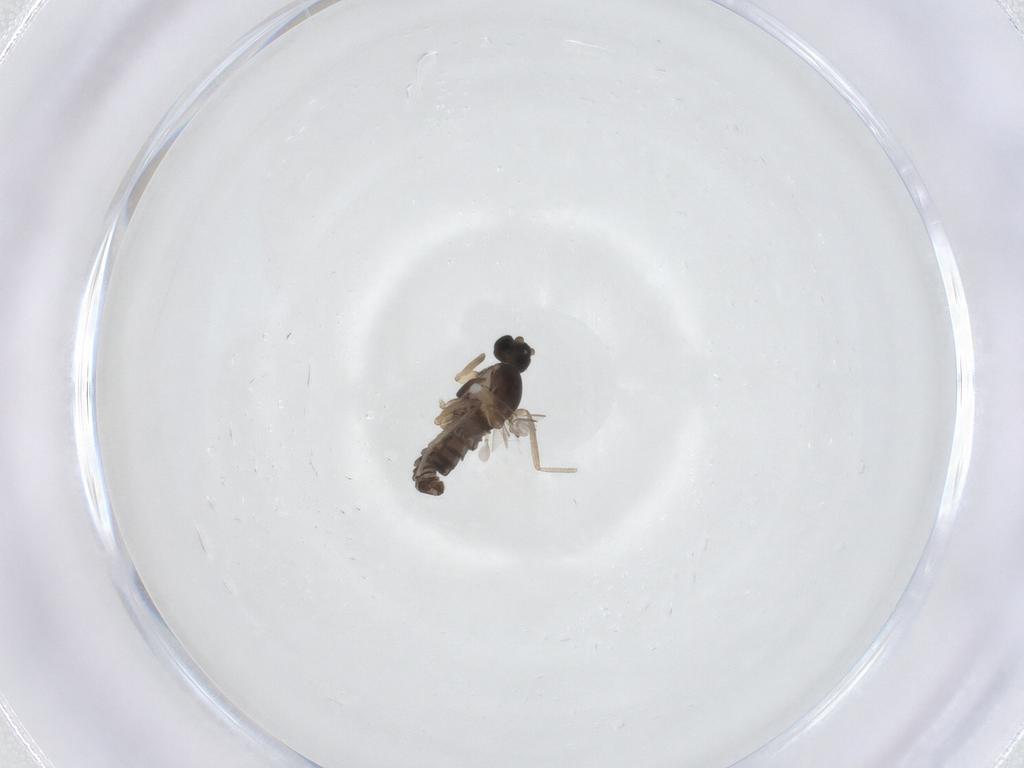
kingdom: Animalia
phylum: Arthropoda
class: Insecta
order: Diptera
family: Cecidomyiidae
